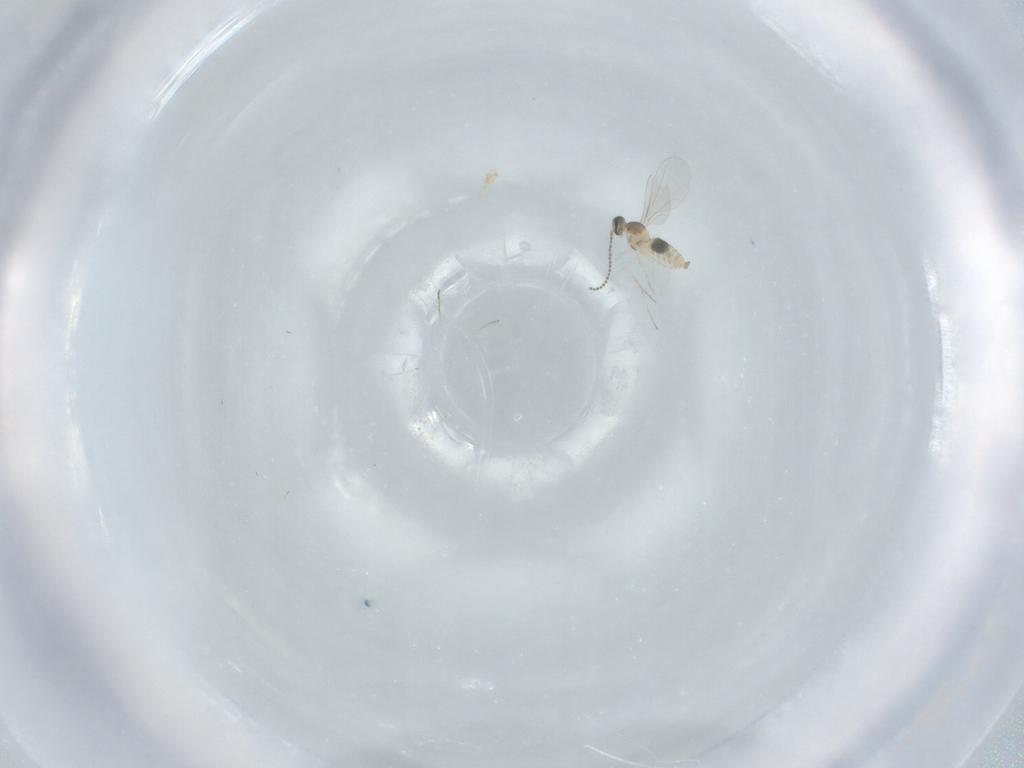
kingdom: Animalia
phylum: Arthropoda
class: Insecta
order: Diptera
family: Cecidomyiidae
